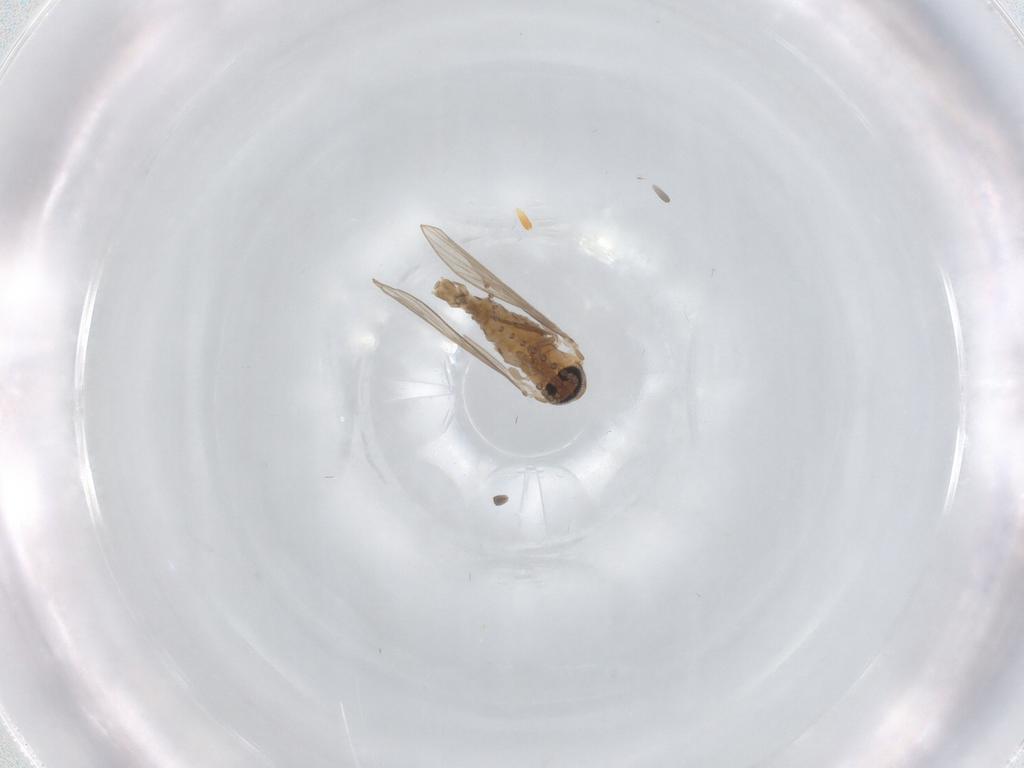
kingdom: Animalia
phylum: Arthropoda
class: Insecta
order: Diptera
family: Psychodidae
